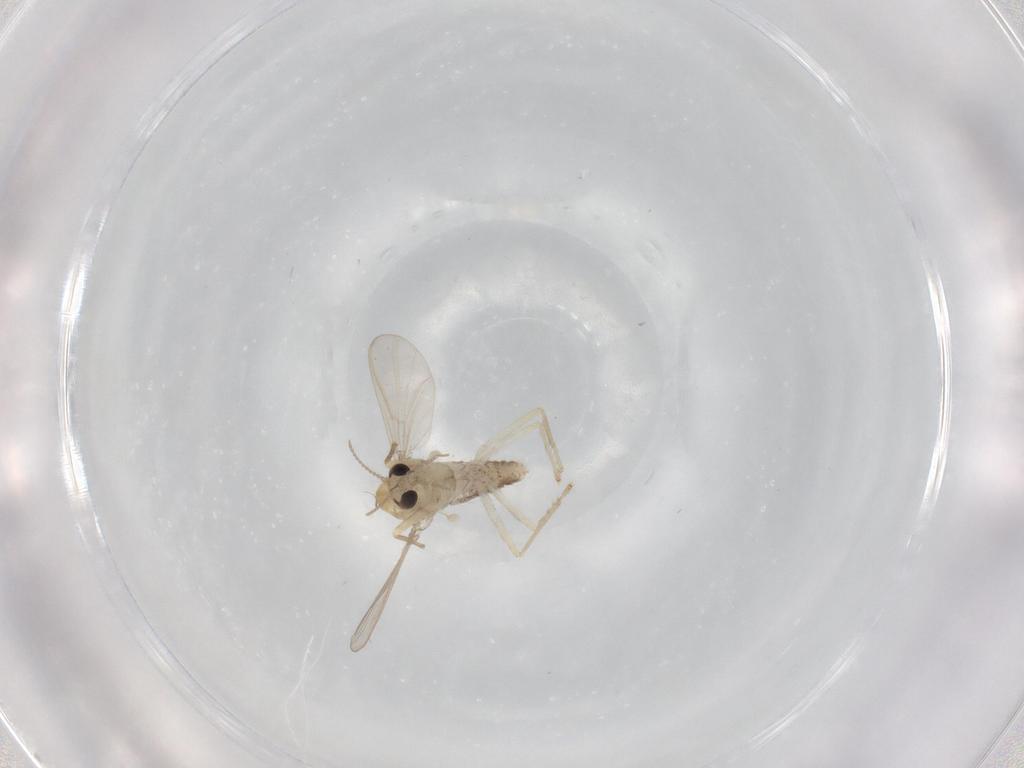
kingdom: Animalia
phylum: Arthropoda
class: Insecta
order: Diptera
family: Chironomidae
